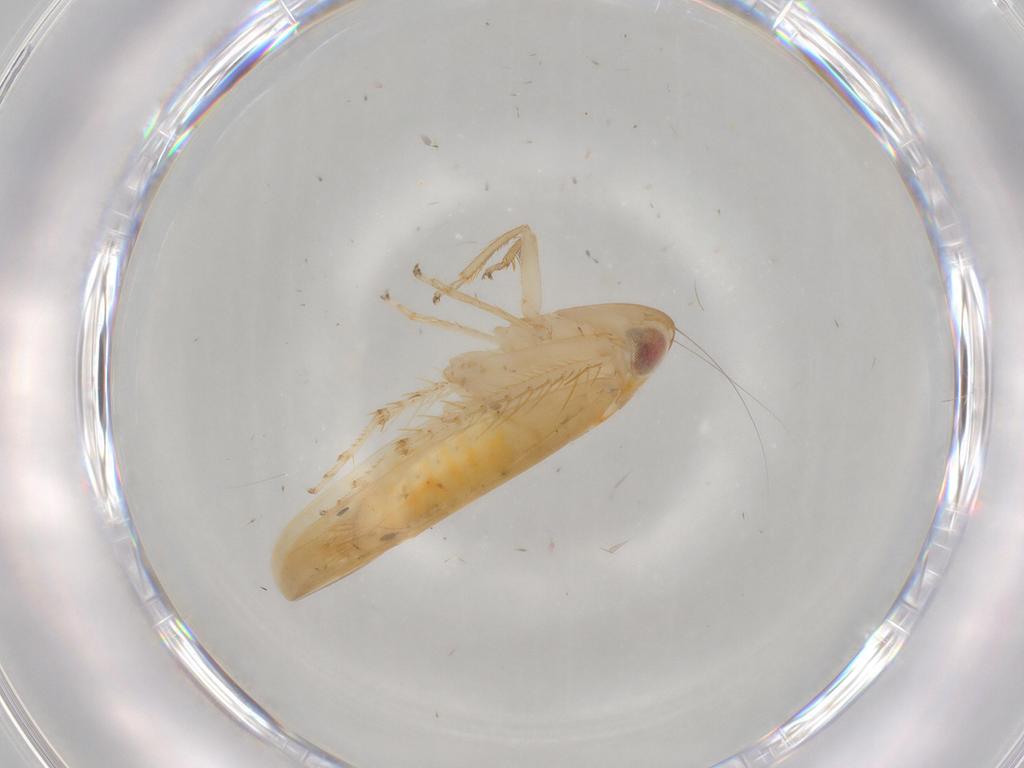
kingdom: Animalia
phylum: Arthropoda
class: Insecta
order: Hemiptera
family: Cicadellidae
